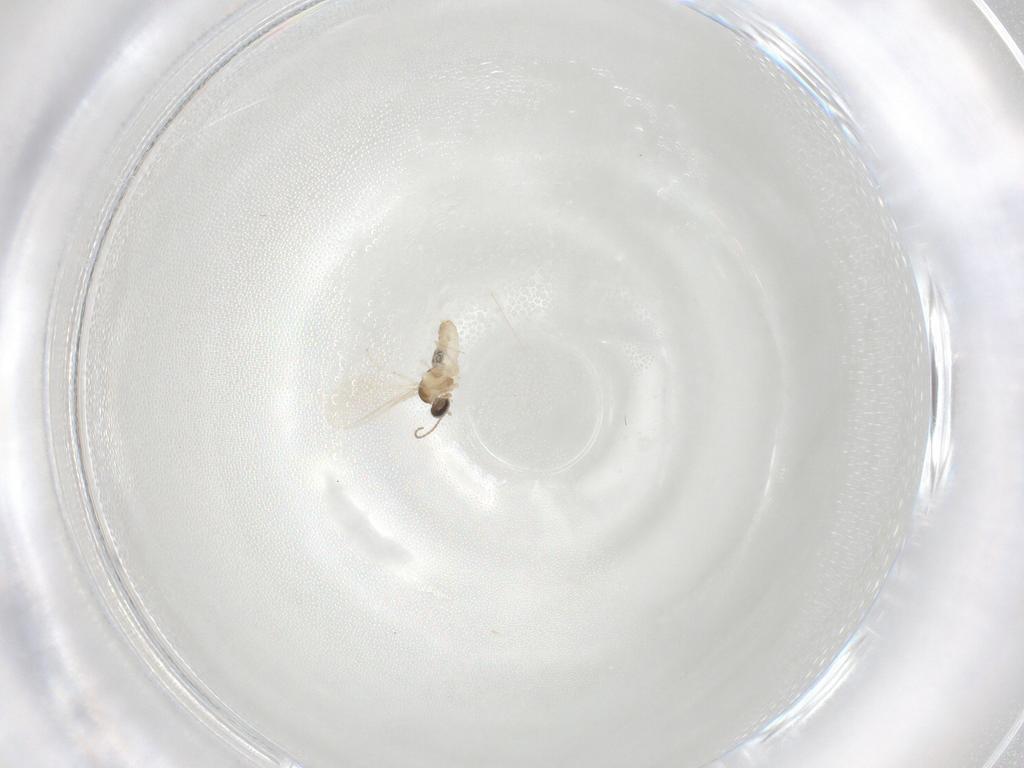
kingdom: Animalia
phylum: Arthropoda
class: Insecta
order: Diptera
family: Cecidomyiidae
